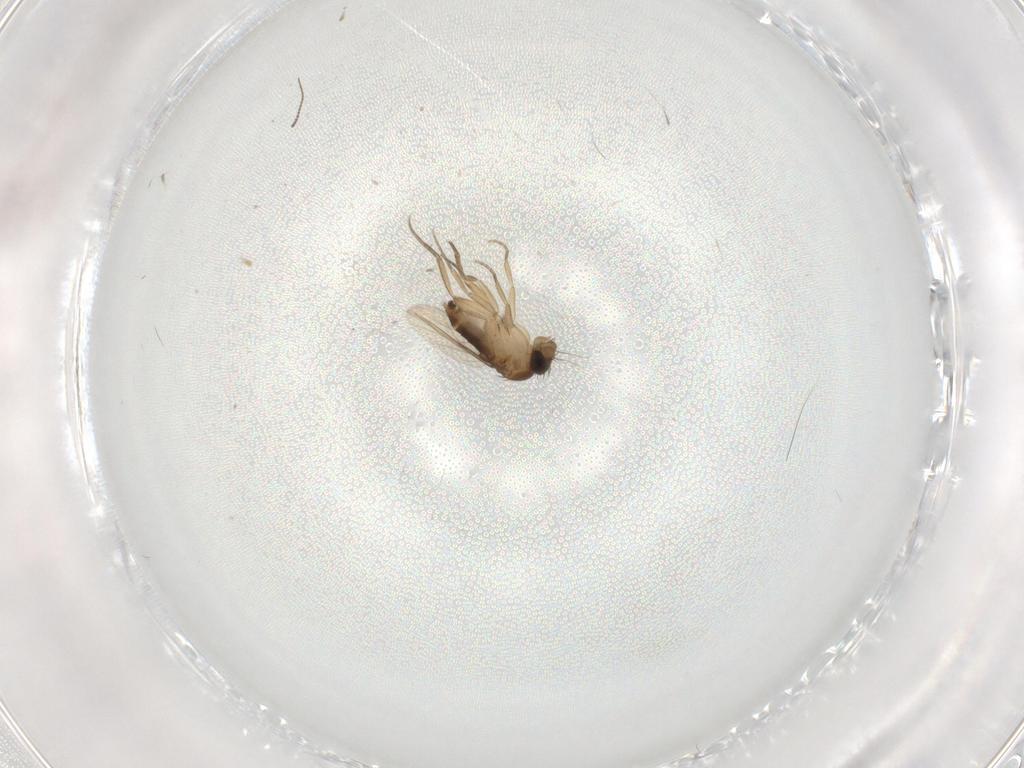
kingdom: Animalia
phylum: Arthropoda
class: Insecta
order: Diptera
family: Chironomidae
